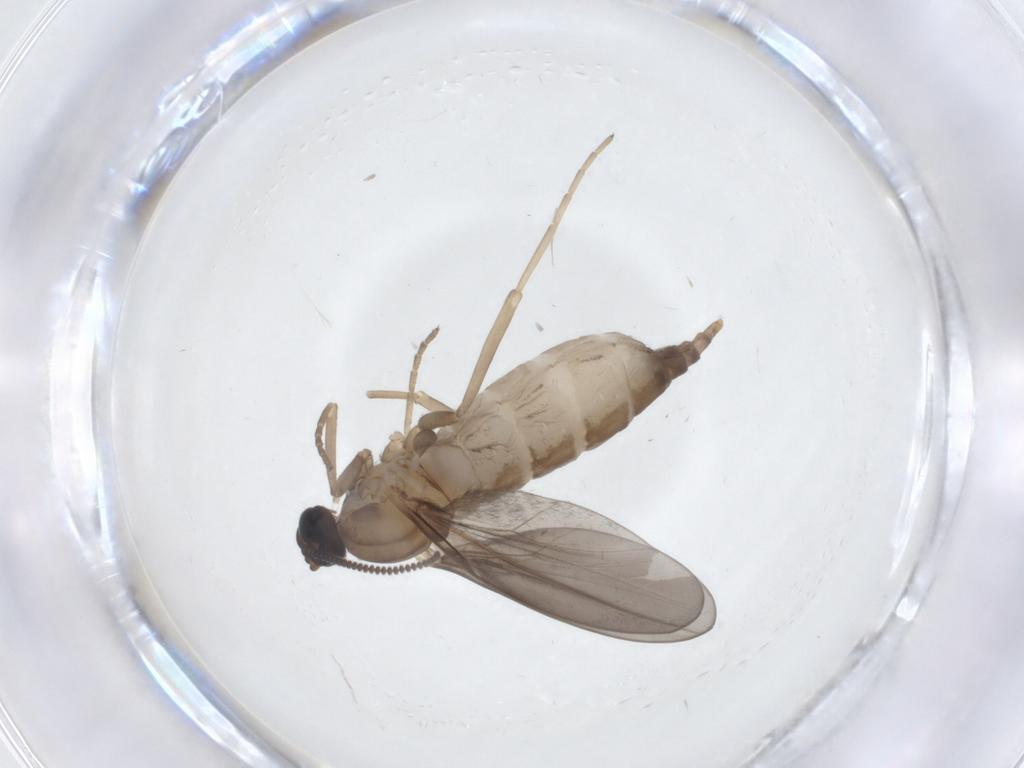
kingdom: Animalia
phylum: Arthropoda
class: Insecta
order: Diptera
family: Cecidomyiidae
